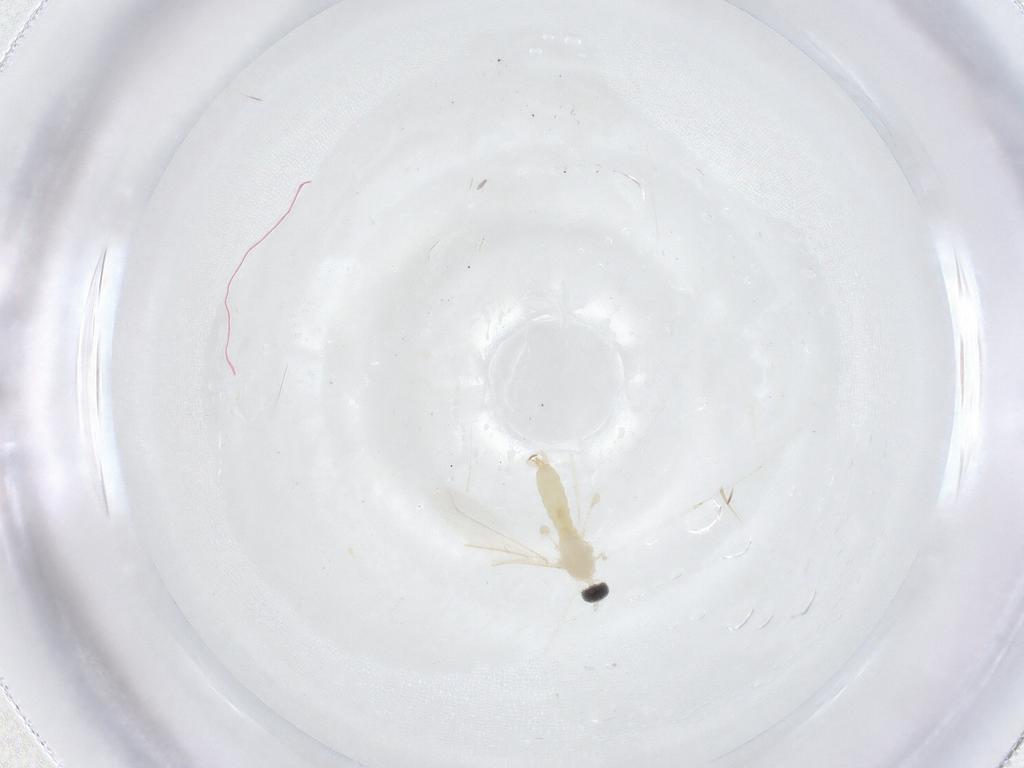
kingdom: Animalia
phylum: Arthropoda
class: Insecta
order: Diptera
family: Cecidomyiidae
